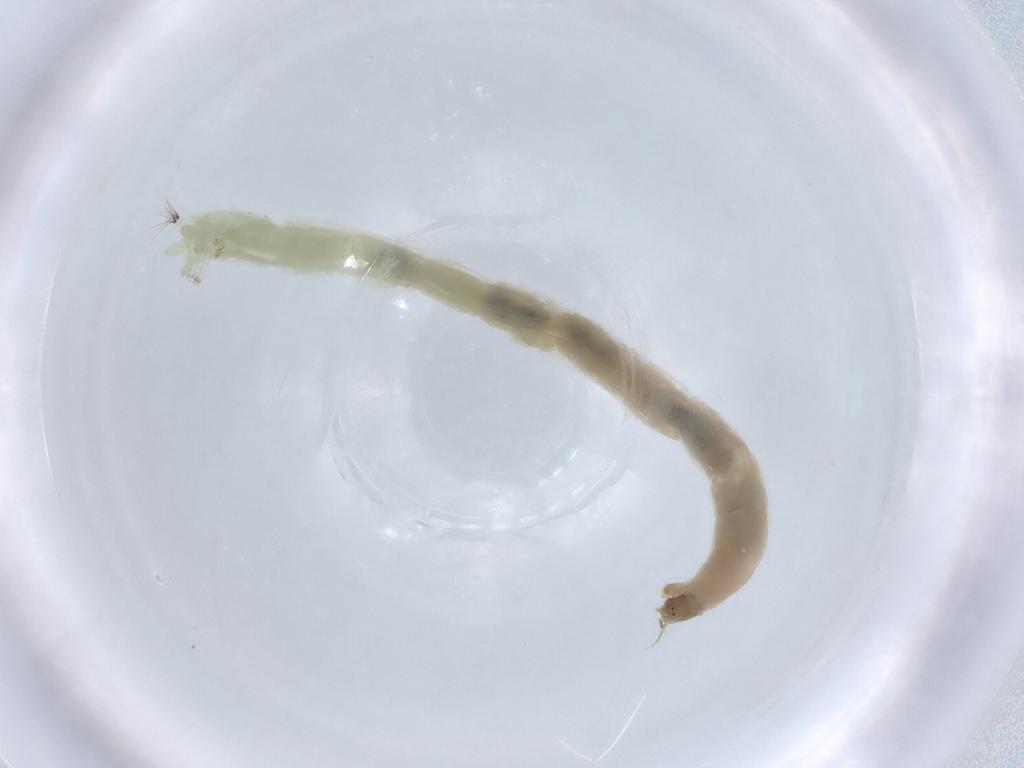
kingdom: Animalia
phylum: Arthropoda
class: Insecta
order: Diptera
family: Chironomidae
